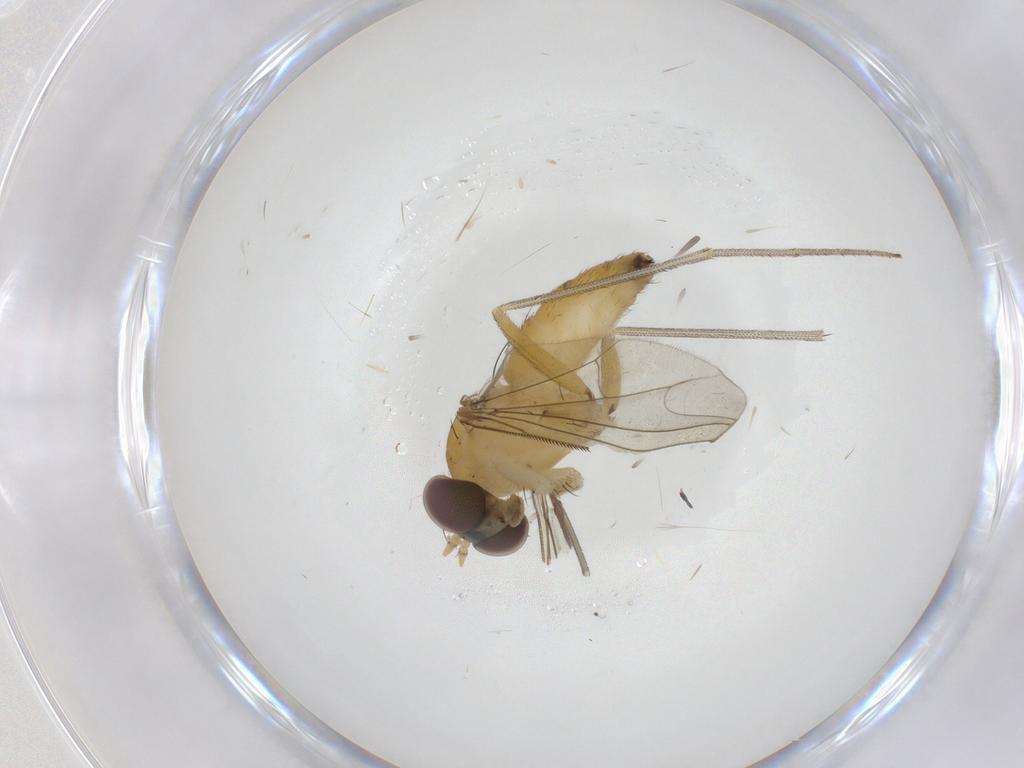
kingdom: Animalia
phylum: Arthropoda
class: Insecta
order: Diptera
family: Dolichopodidae
